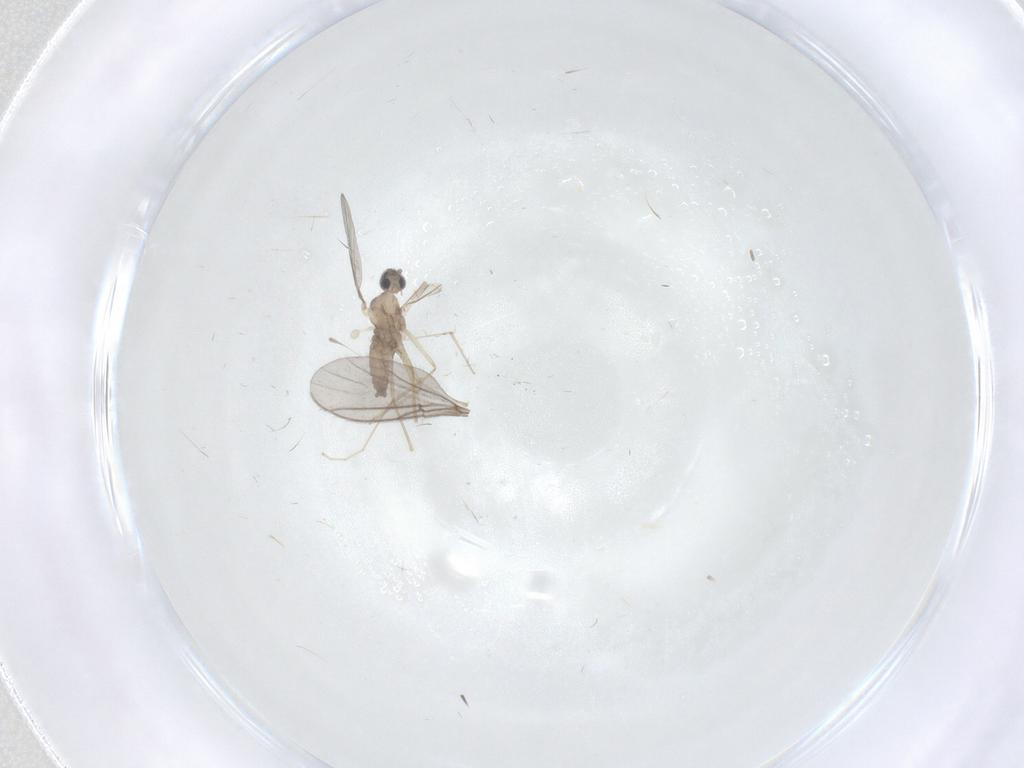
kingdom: Animalia
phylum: Arthropoda
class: Insecta
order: Diptera
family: Sciaridae
